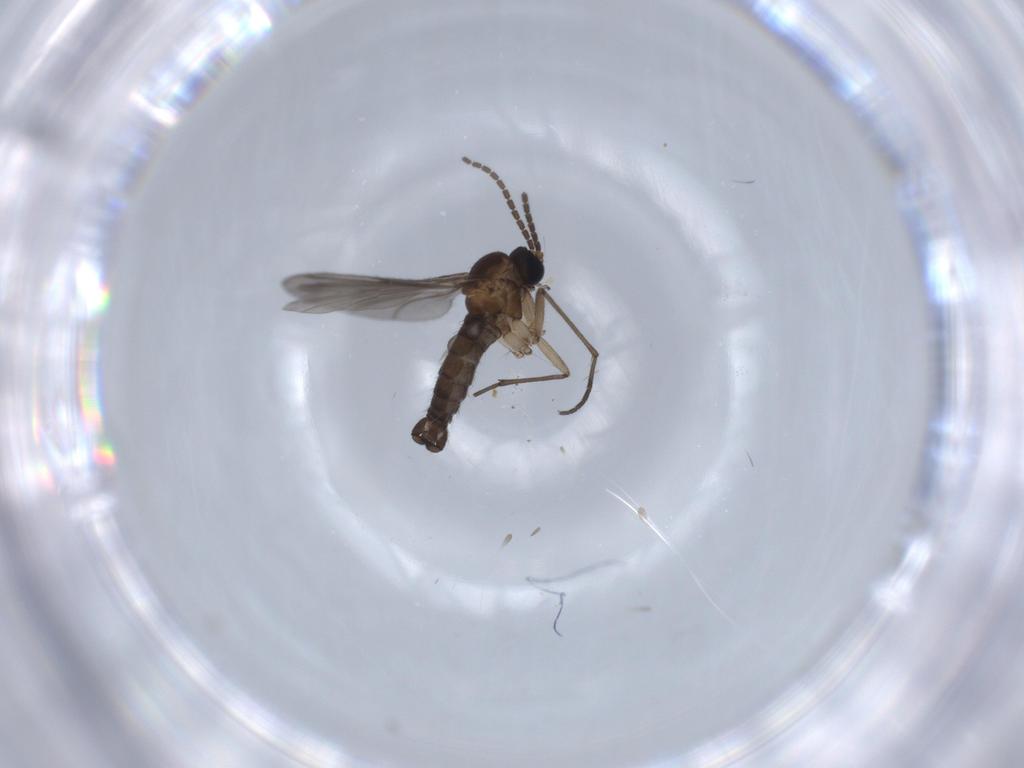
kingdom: Animalia
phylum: Arthropoda
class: Insecta
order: Diptera
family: Sciaridae
